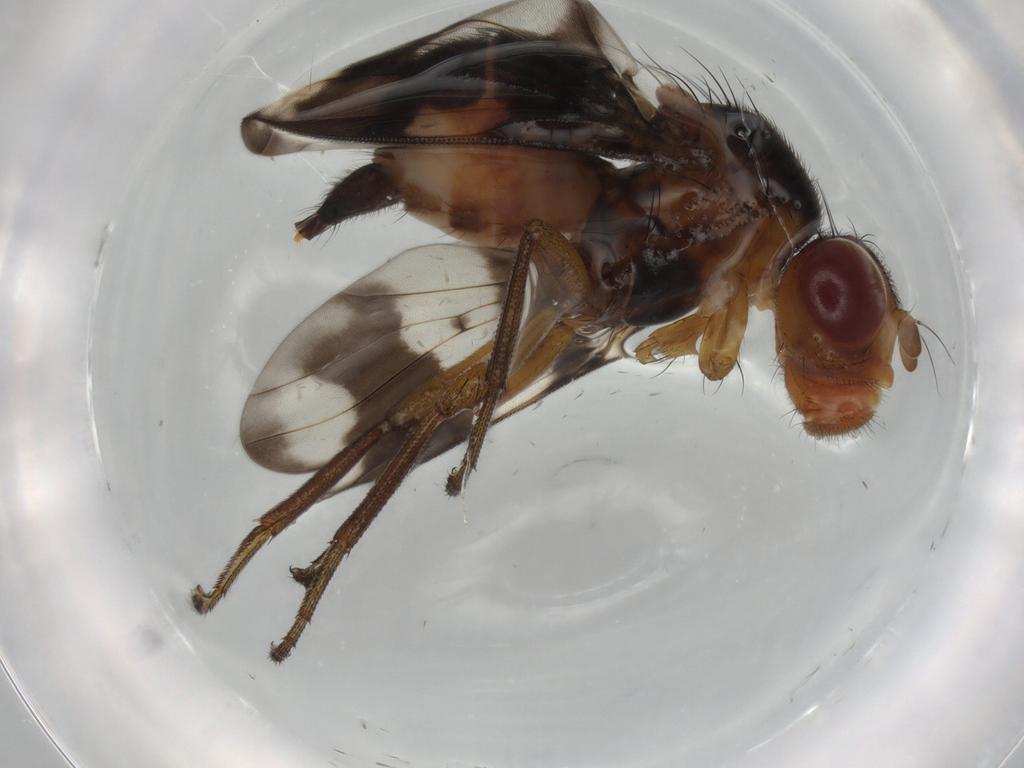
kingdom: Animalia
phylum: Arthropoda
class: Insecta
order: Diptera
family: Richardiidae
